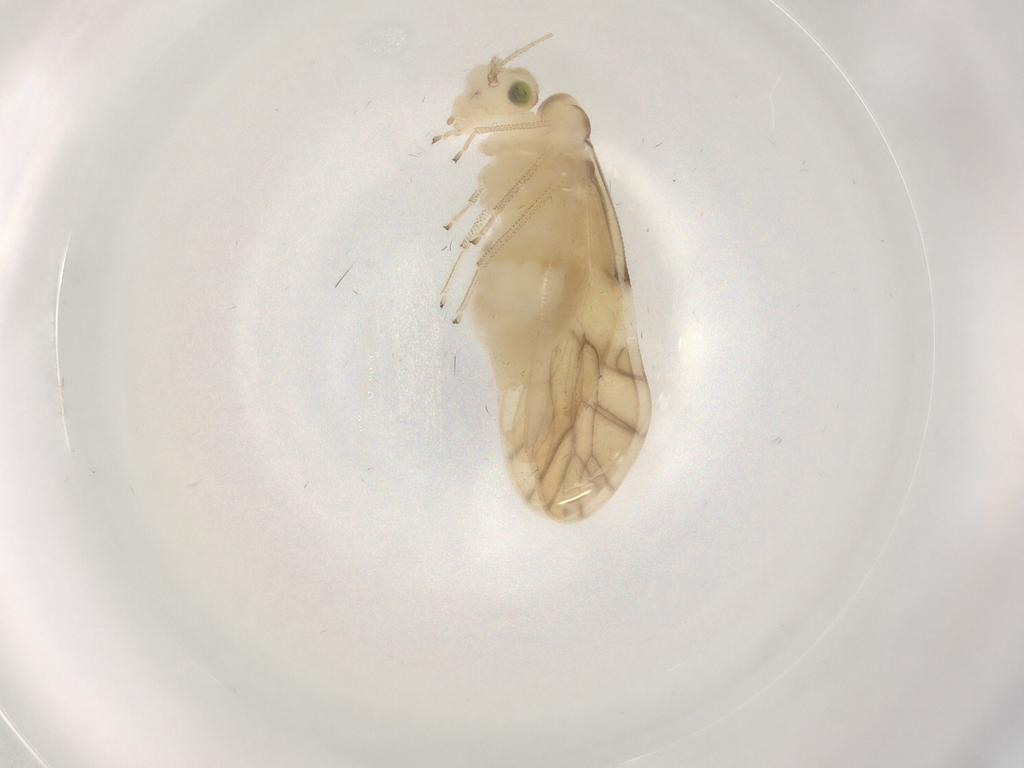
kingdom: Animalia
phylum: Arthropoda
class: Insecta
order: Psocodea
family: Caeciliusidae
